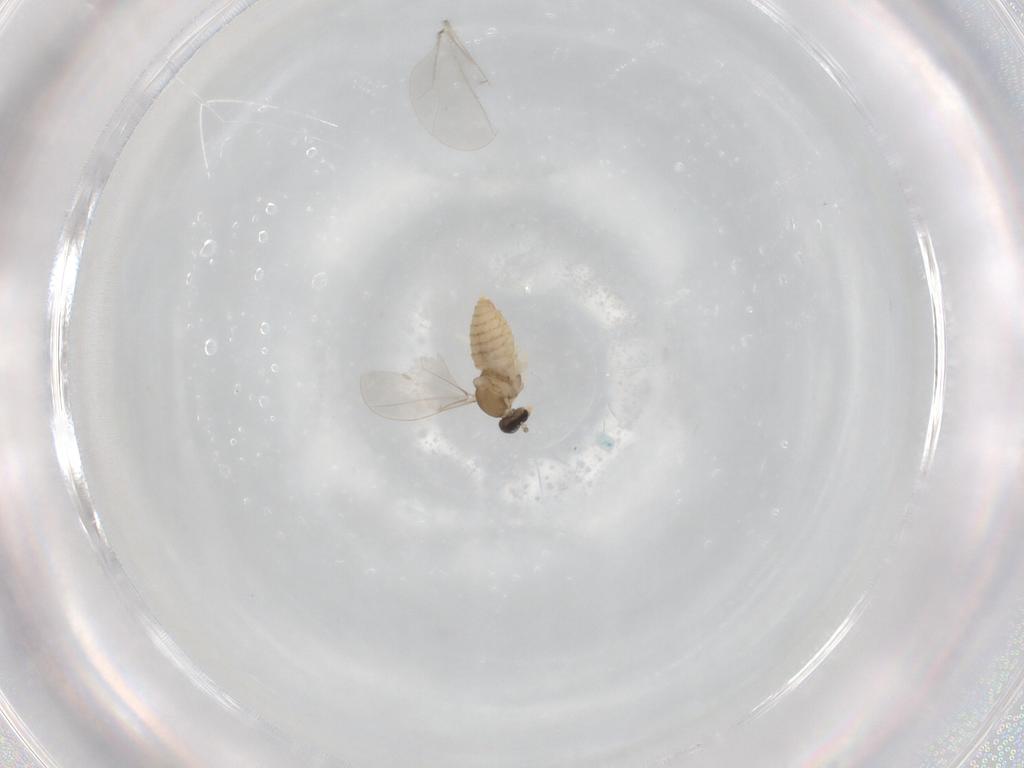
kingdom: Animalia
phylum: Arthropoda
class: Insecta
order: Diptera
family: Cecidomyiidae
